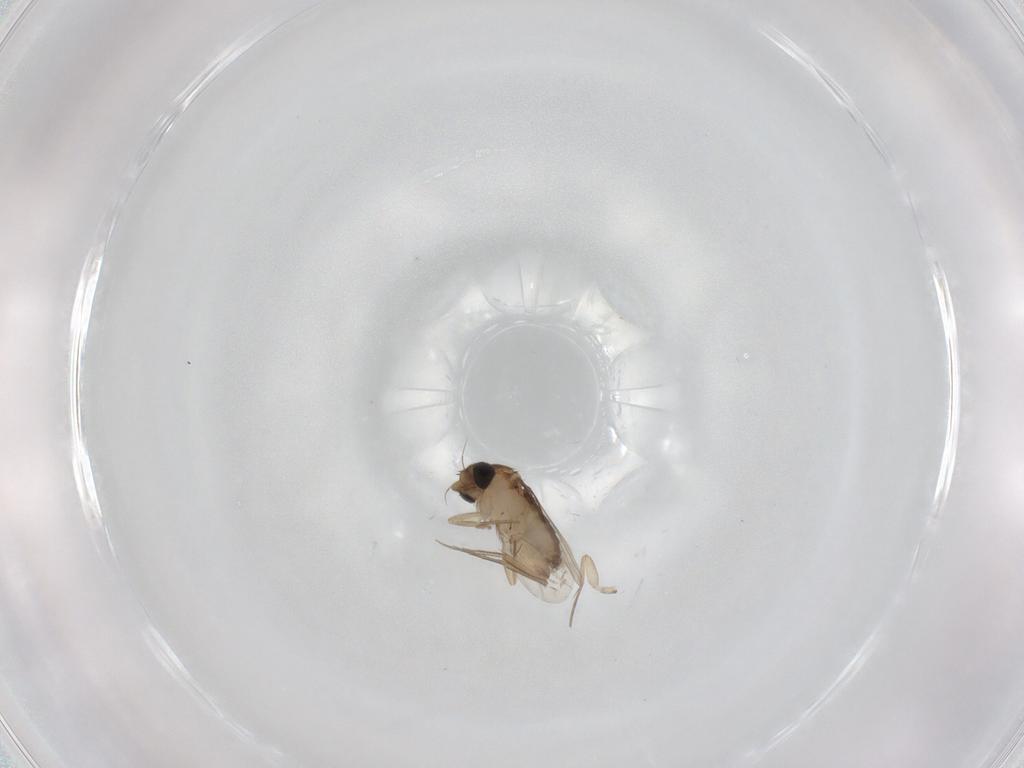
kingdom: Animalia
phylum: Arthropoda
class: Insecta
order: Diptera
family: Phoridae
